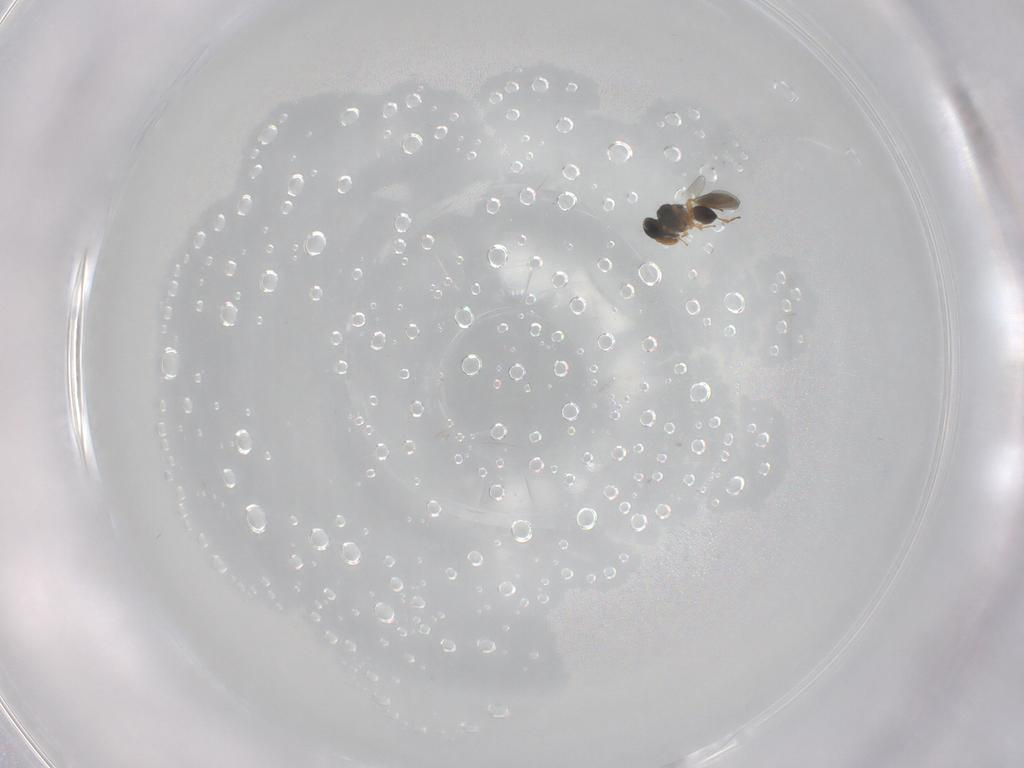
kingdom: Animalia
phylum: Arthropoda
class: Insecta
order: Hymenoptera
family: Platygastridae
